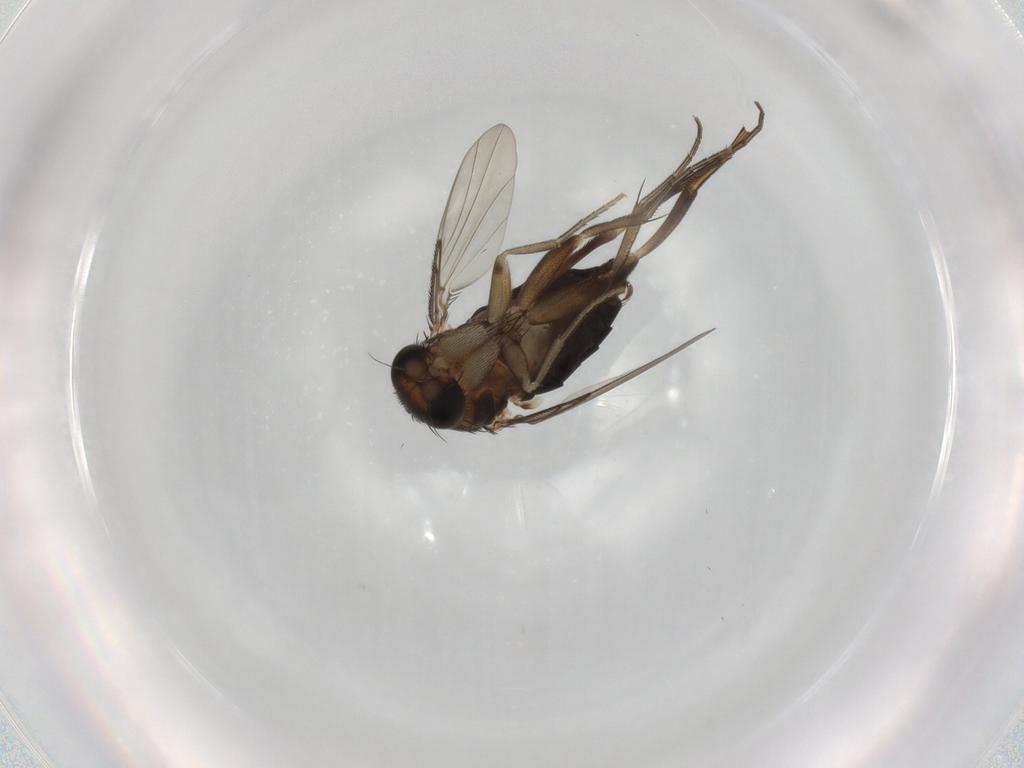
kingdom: Animalia
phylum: Arthropoda
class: Insecta
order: Diptera
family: Phoridae
